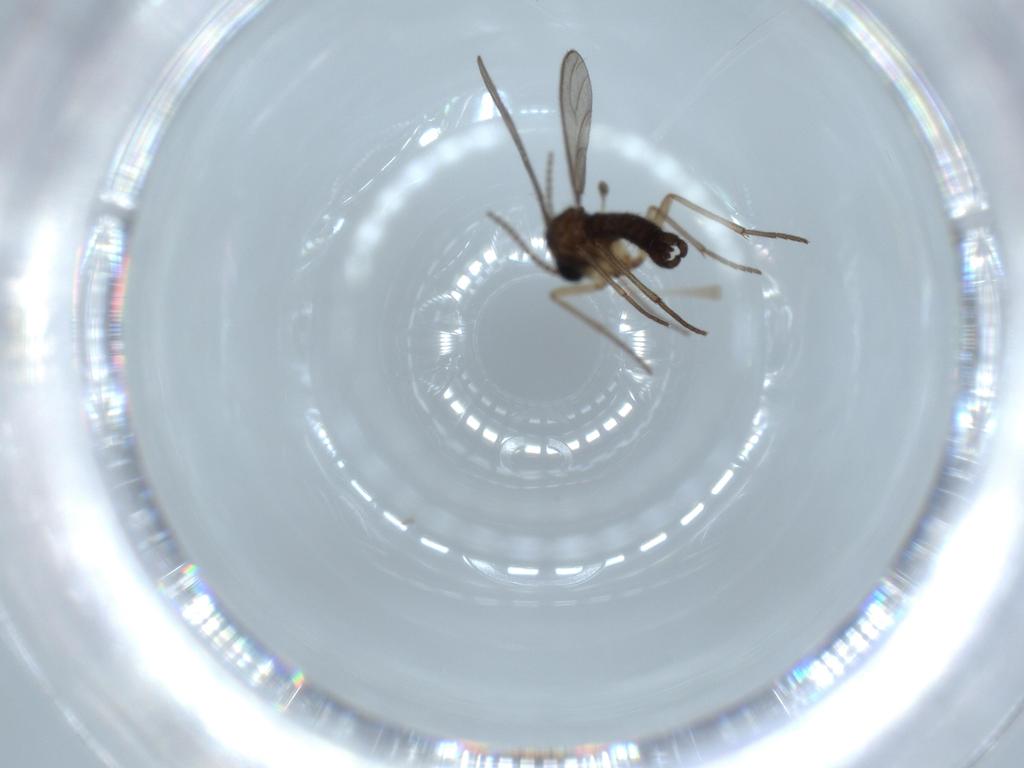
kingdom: Animalia
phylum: Arthropoda
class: Insecta
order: Diptera
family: Sciaridae
